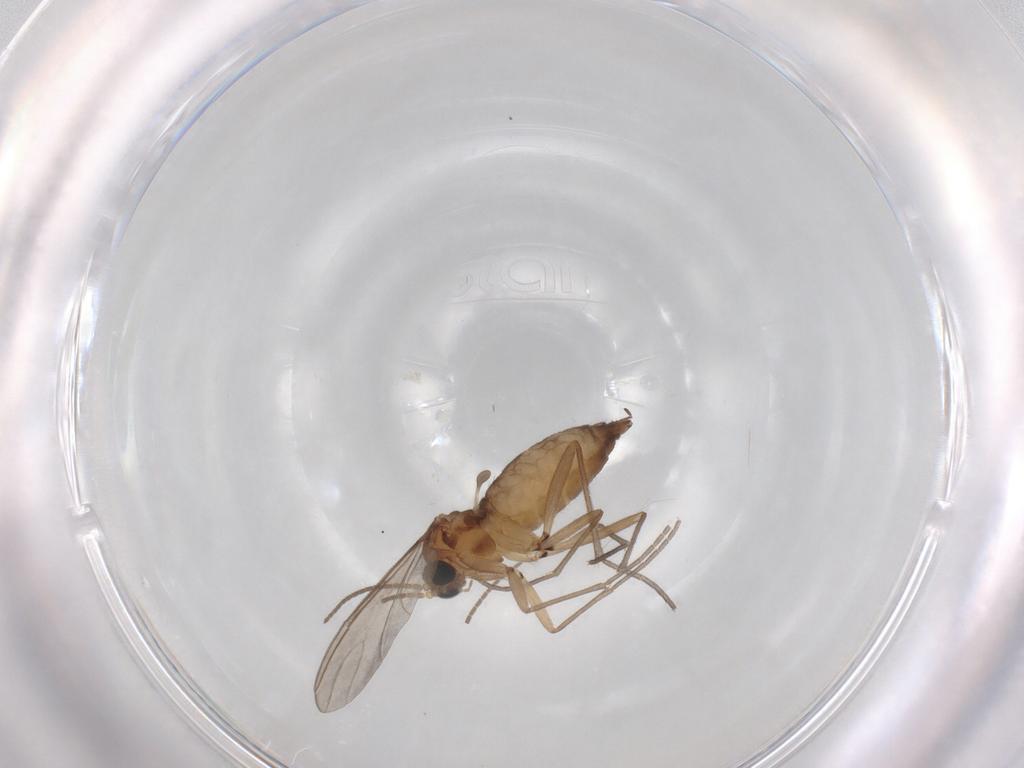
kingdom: Animalia
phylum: Arthropoda
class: Insecta
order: Diptera
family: Sciaridae
